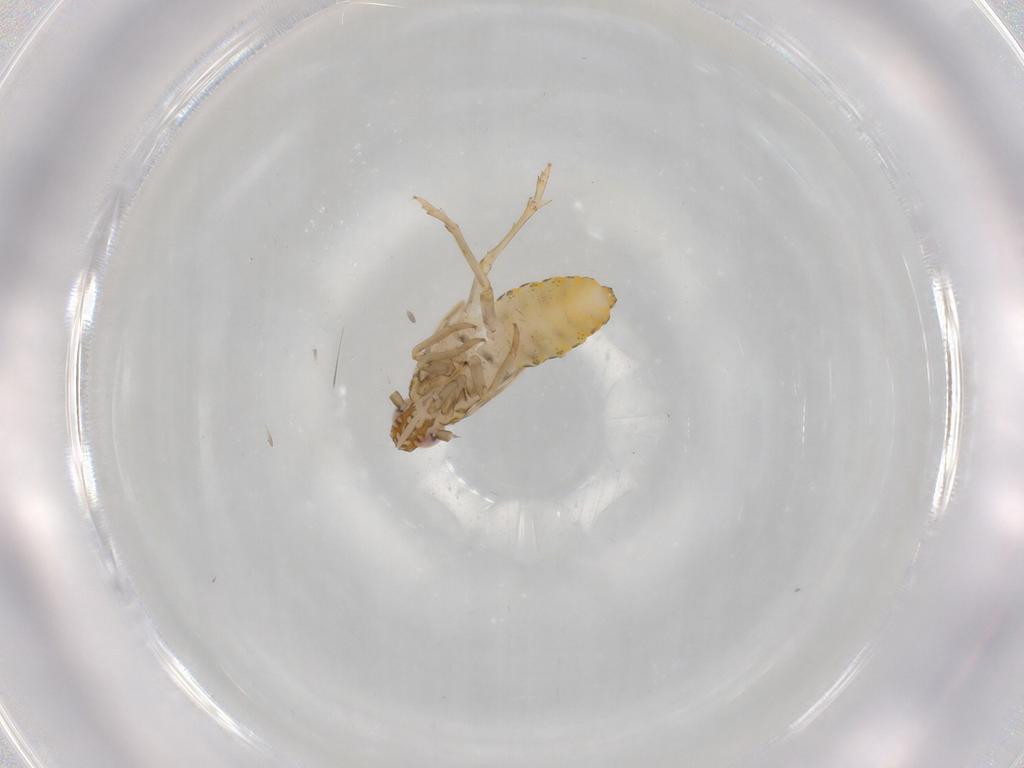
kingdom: Animalia
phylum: Arthropoda
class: Insecta
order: Hemiptera
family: Delphacidae
